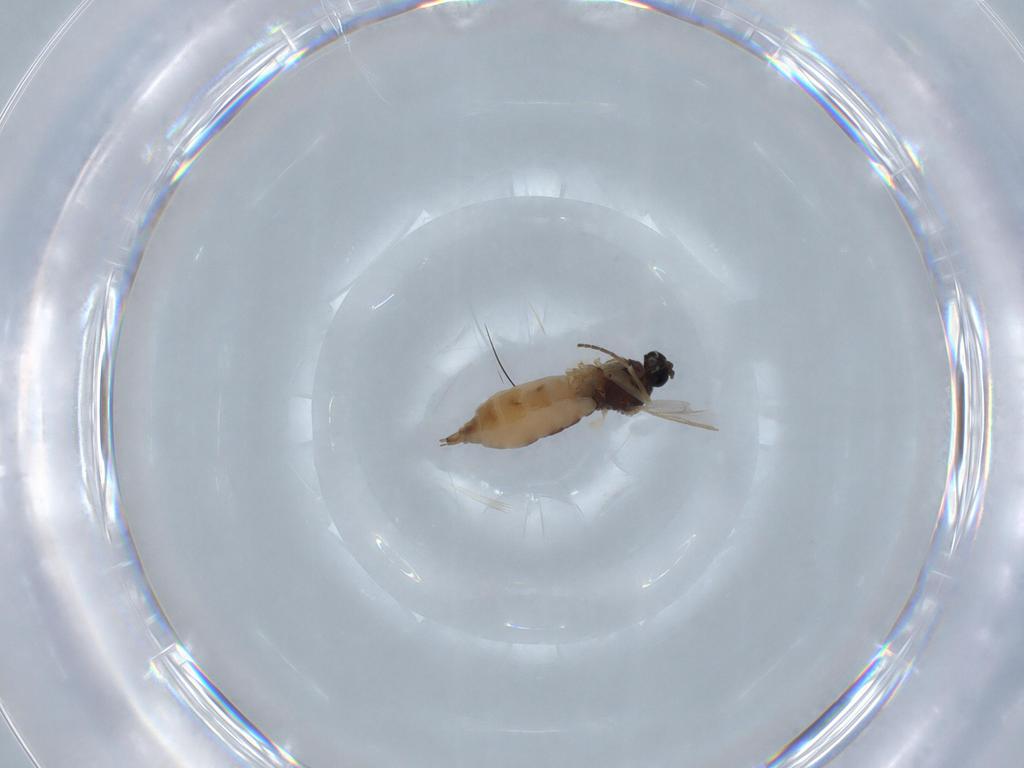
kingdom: Animalia
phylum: Arthropoda
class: Insecta
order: Diptera
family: Sciaridae
